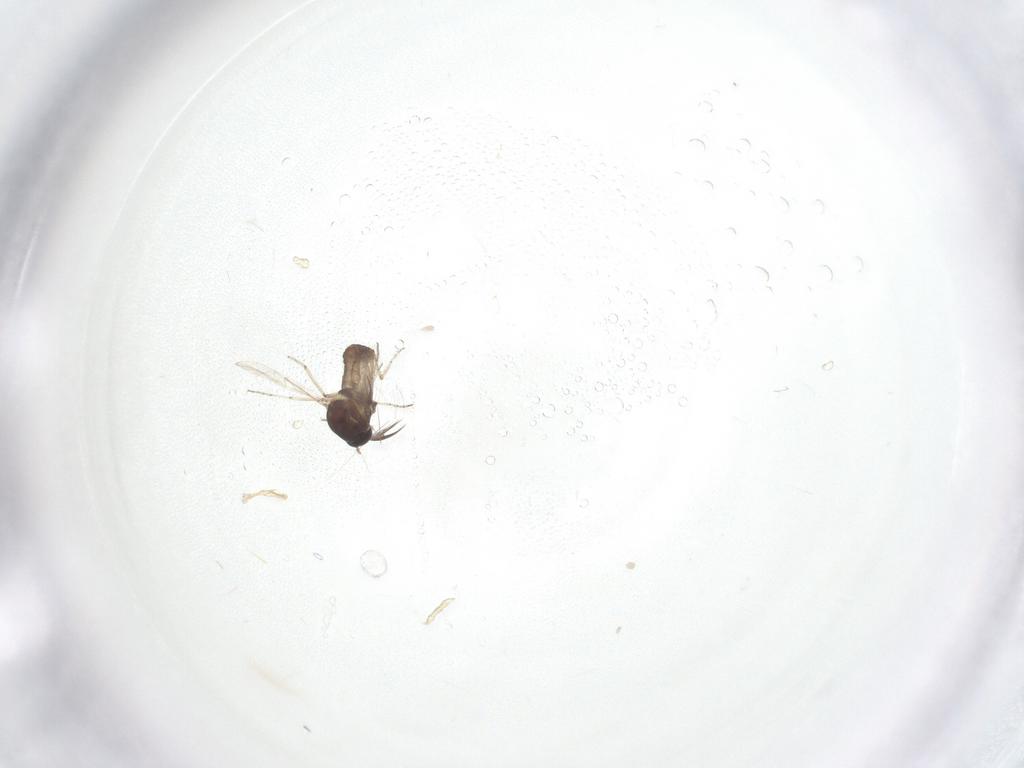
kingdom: Animalia
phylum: Arthropoda
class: Insecta
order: Diptera
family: Ceratopogonidae
